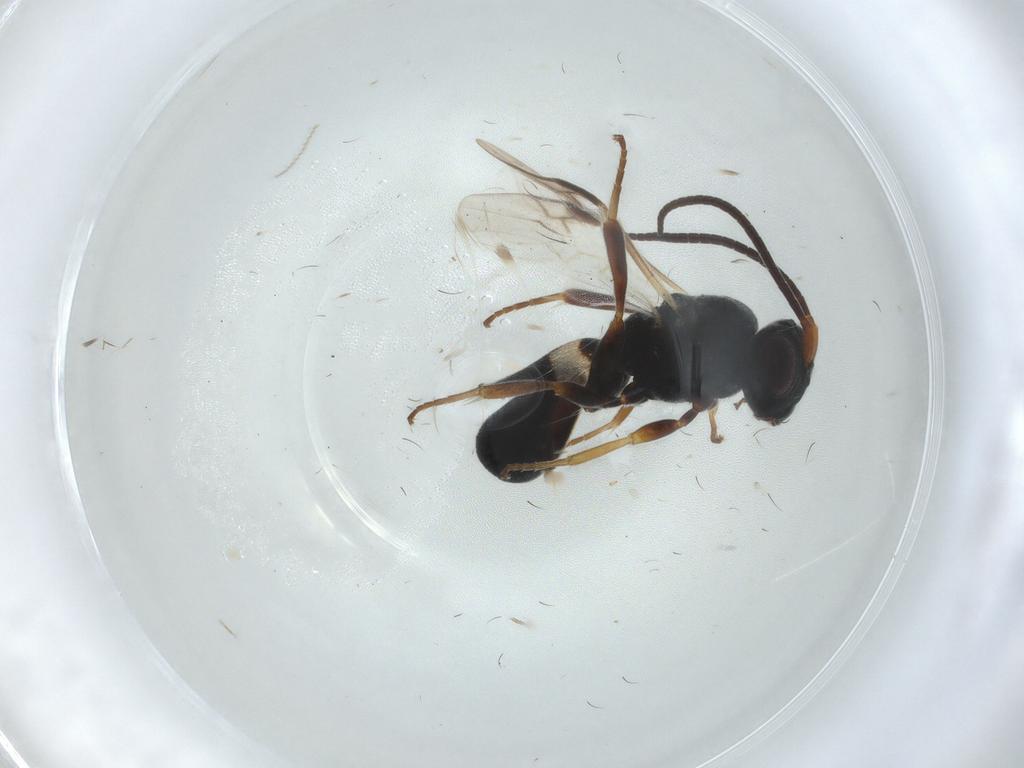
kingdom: Animalia
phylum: Arthropoda
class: Insecta
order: Hymenoptera
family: Braconidae
